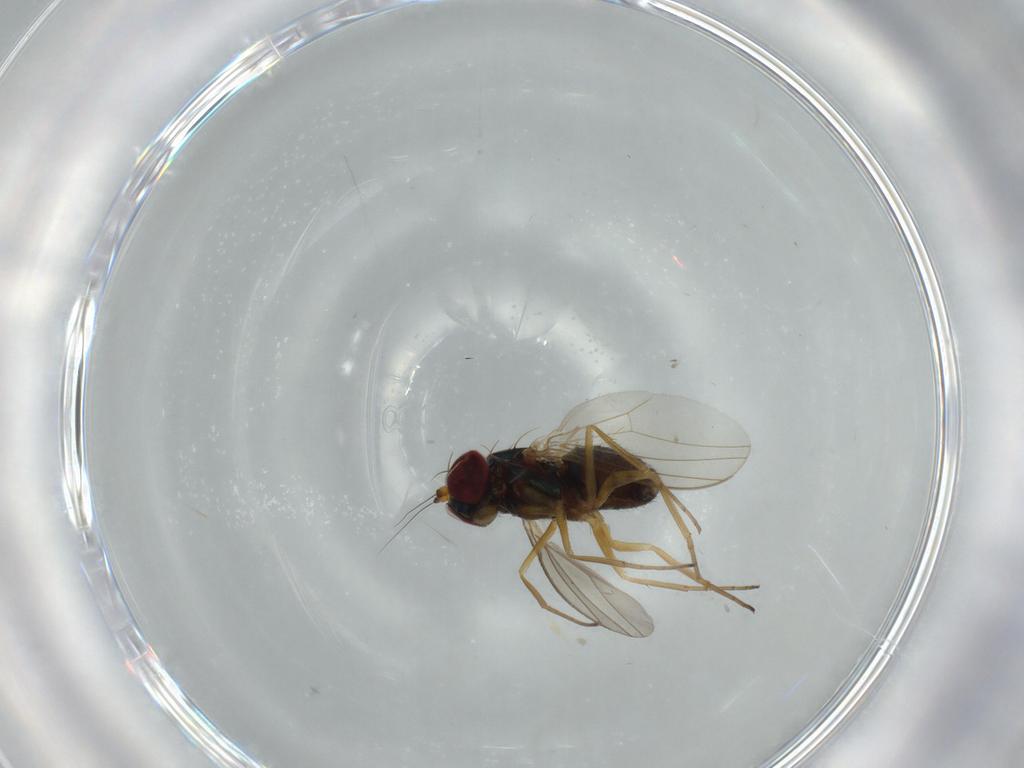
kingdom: Animalia
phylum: Arthropoda
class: Insecta
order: Diptera
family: Dolichopodidae
